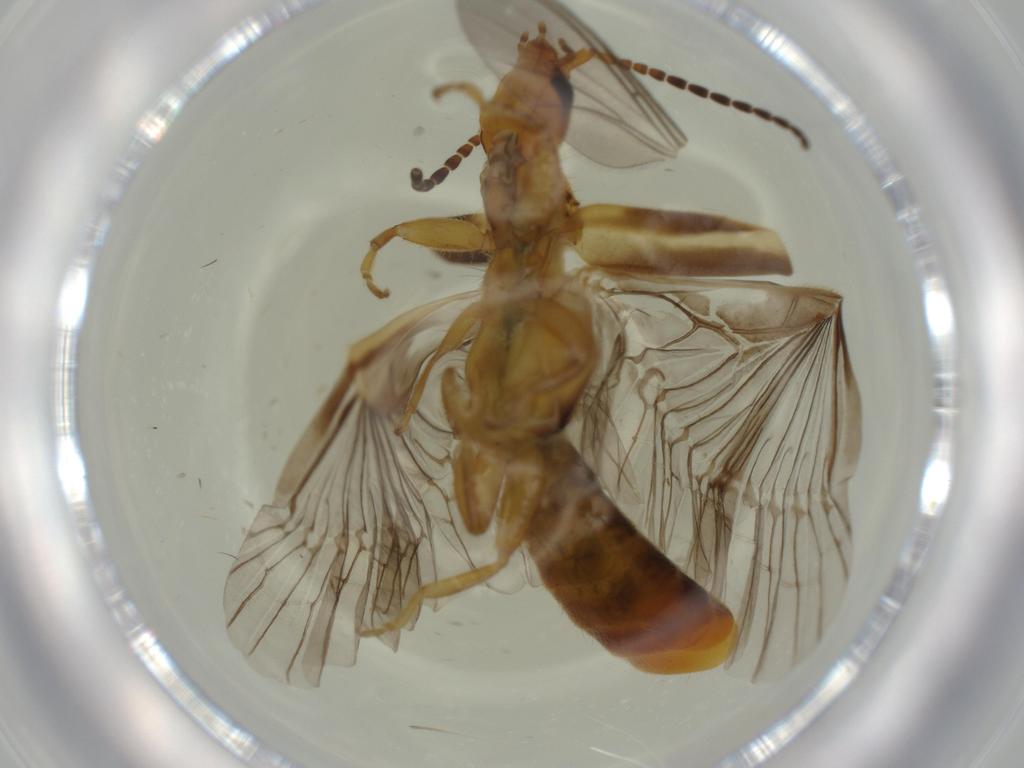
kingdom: Animalia
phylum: Arthropoda
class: Insecta
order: Dermaptera
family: Forficulidae
